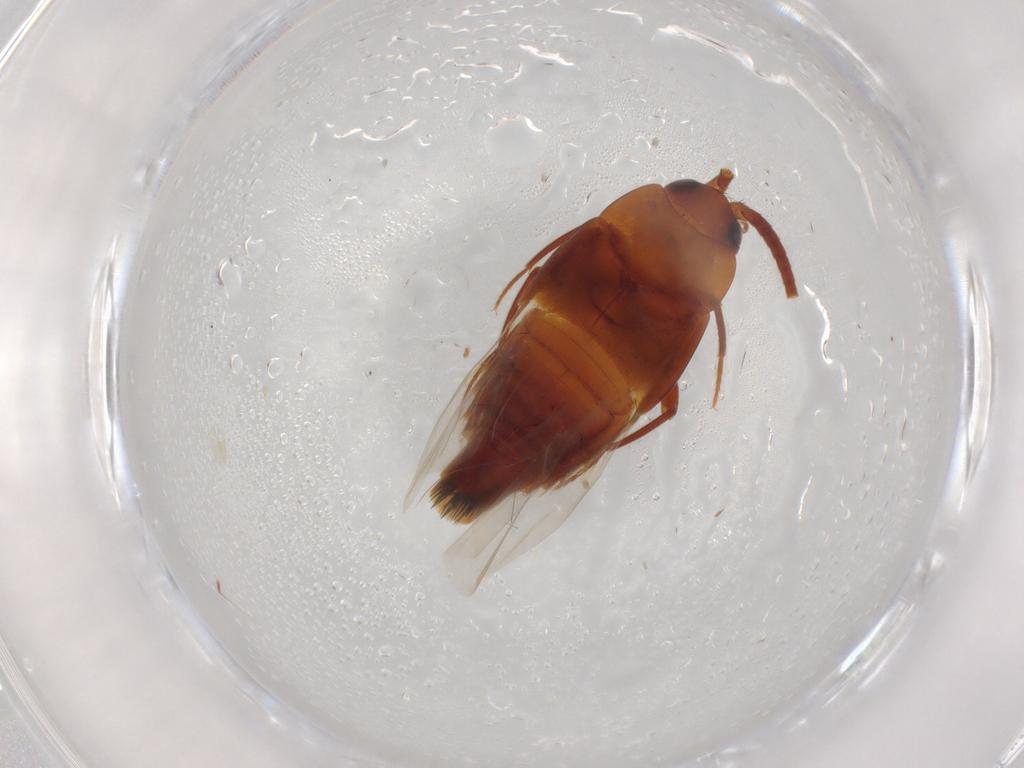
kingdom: Animalia
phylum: Arthropoda
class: Insecta
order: Coleoptera
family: Staphylinidae
